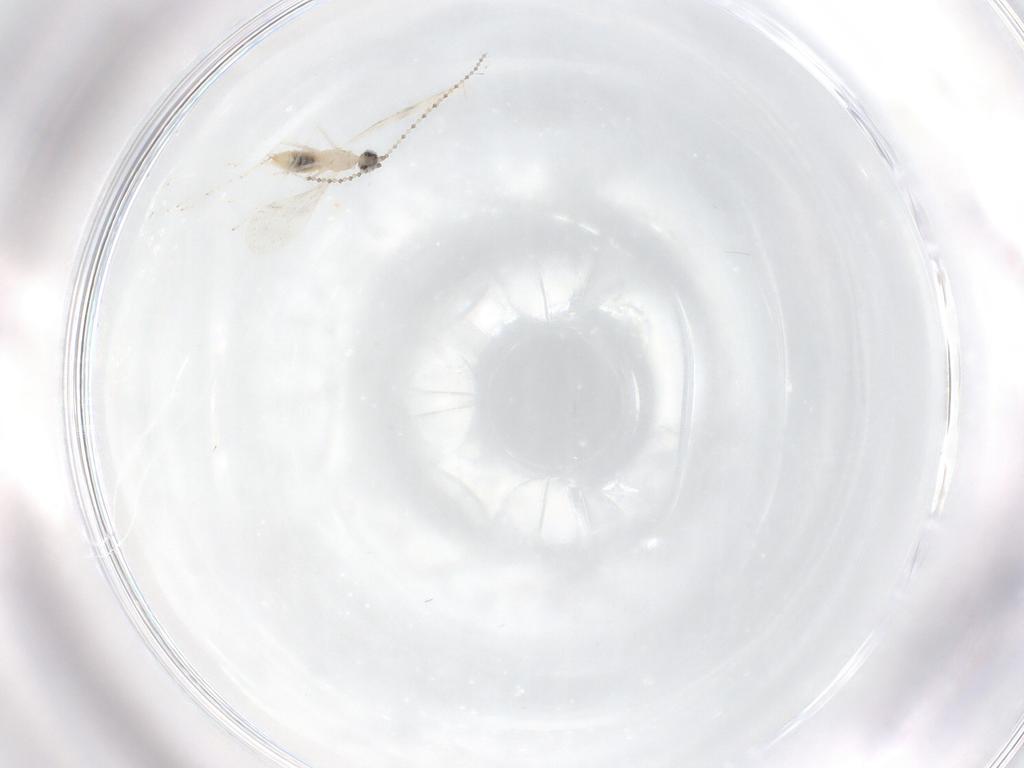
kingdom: Animalia
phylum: Arthropoda
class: Insecta
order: Diptera
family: Cecidomyiidae
